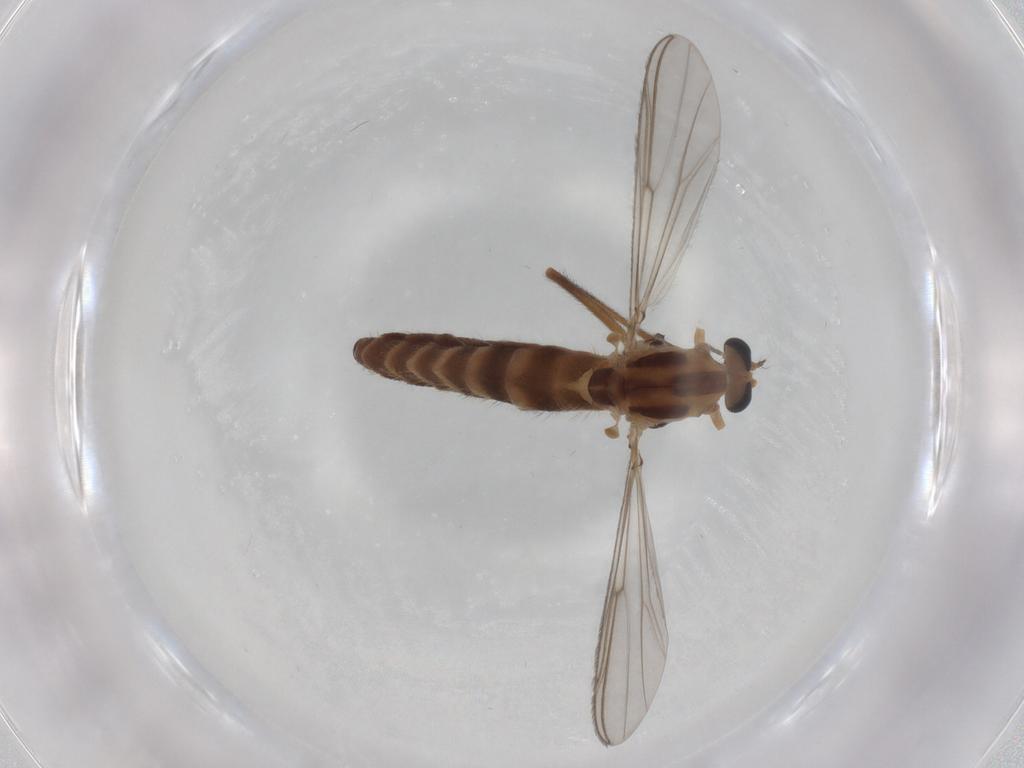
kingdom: Animalia
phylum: Arthropoda
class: Insecta
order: Diptera
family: Chironomidae
